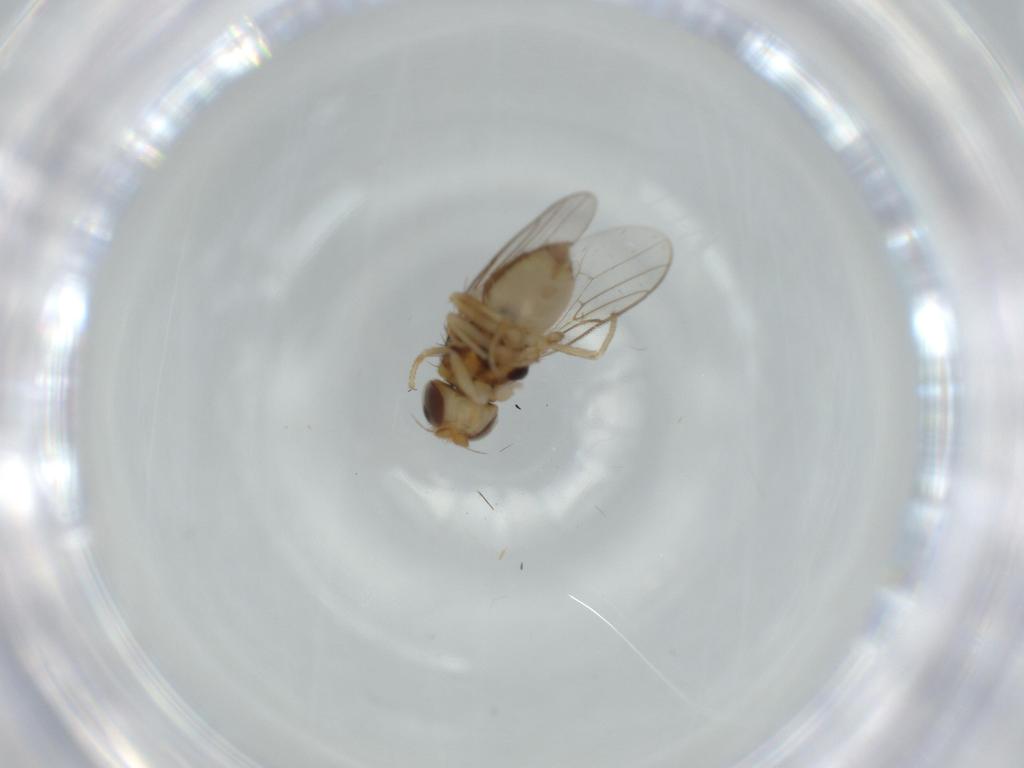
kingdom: Animalia
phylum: Arthropoda
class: Insecta
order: Diptera
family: Chloropidae
